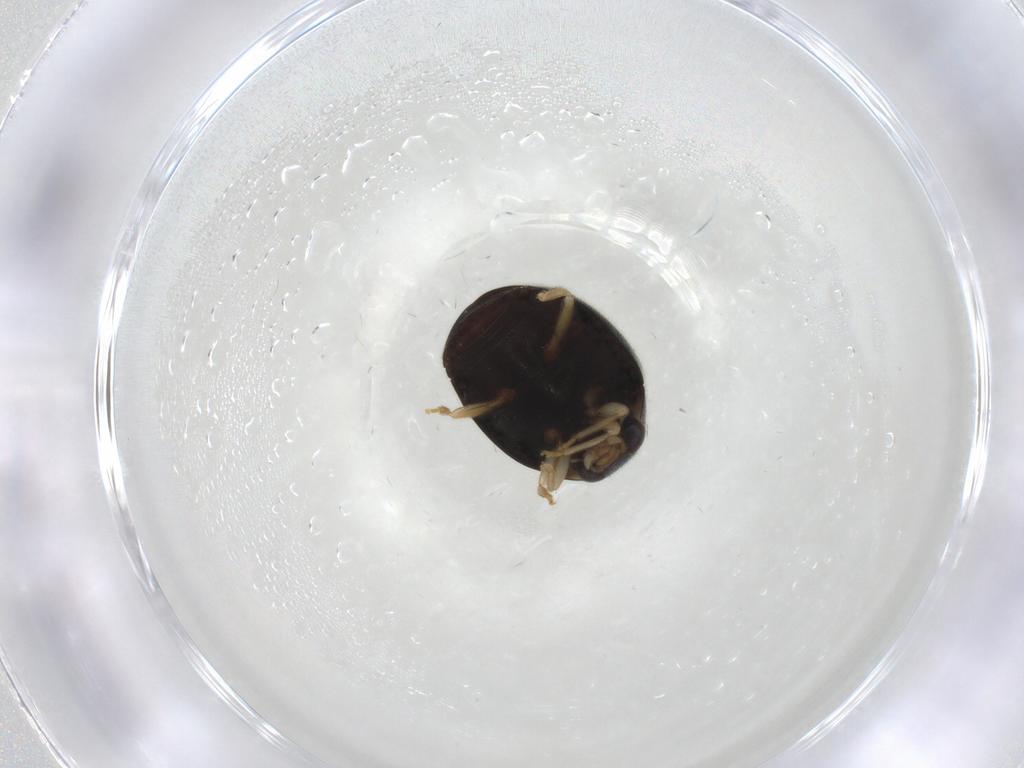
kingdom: Animalia
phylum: Arthropoda
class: Insecta
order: Coleoptera
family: Coccinellidae
